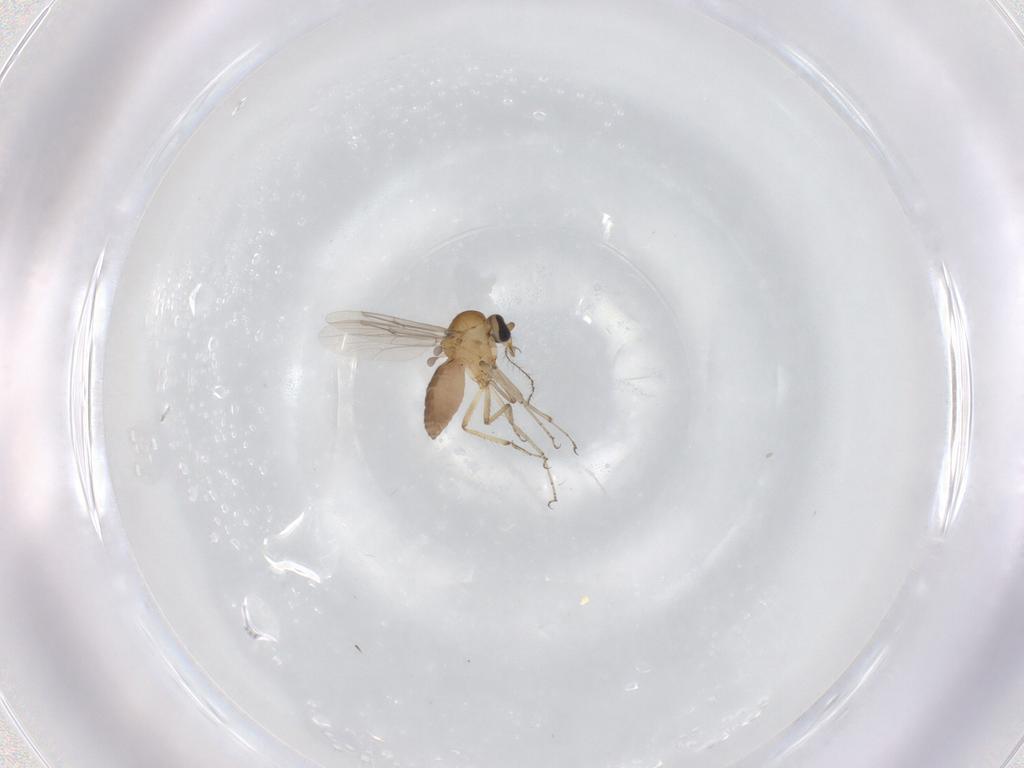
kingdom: Animalia
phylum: Arthropoda
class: Insecta
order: Diptera
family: Ceratopogonidae
